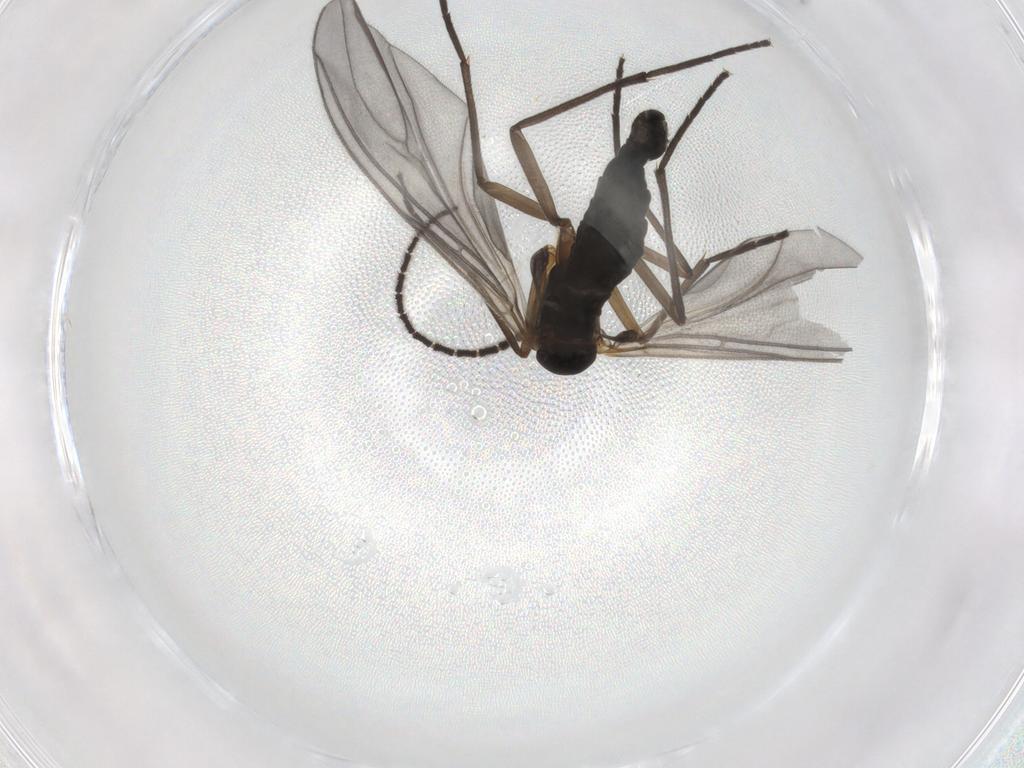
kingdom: Animalia
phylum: Arthropoda
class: Insecta
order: Diptera
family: Sciaridae
